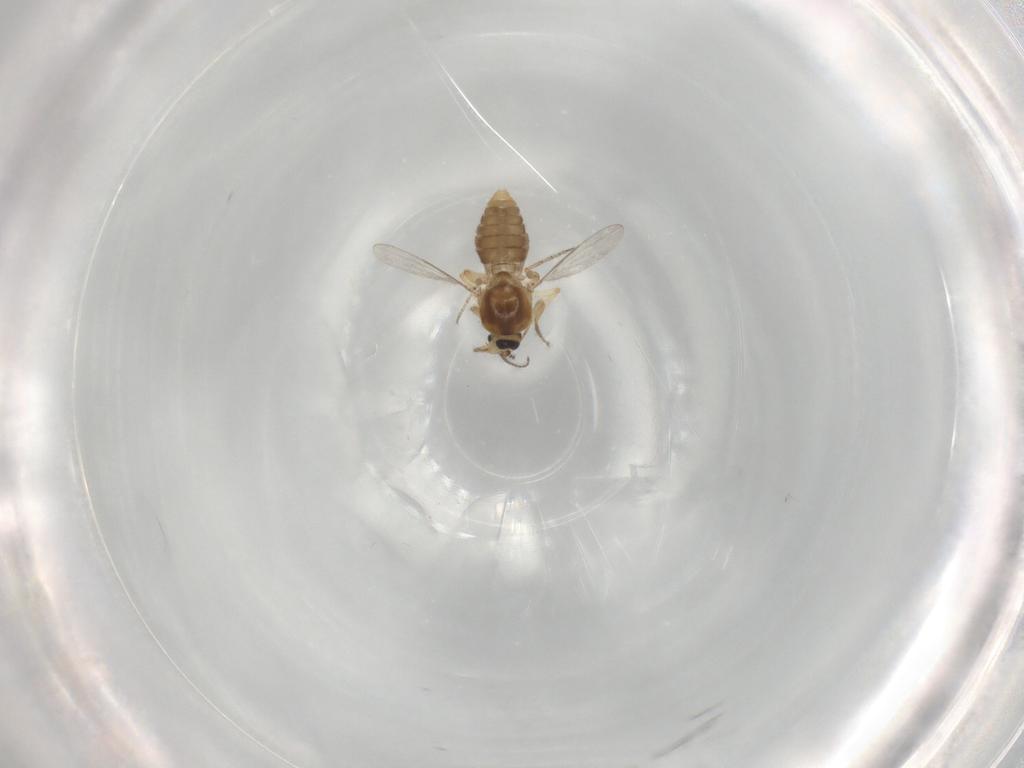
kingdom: Animalia
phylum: Arthropoda
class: Insecta
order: Diptera
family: Ceratopogonidae
